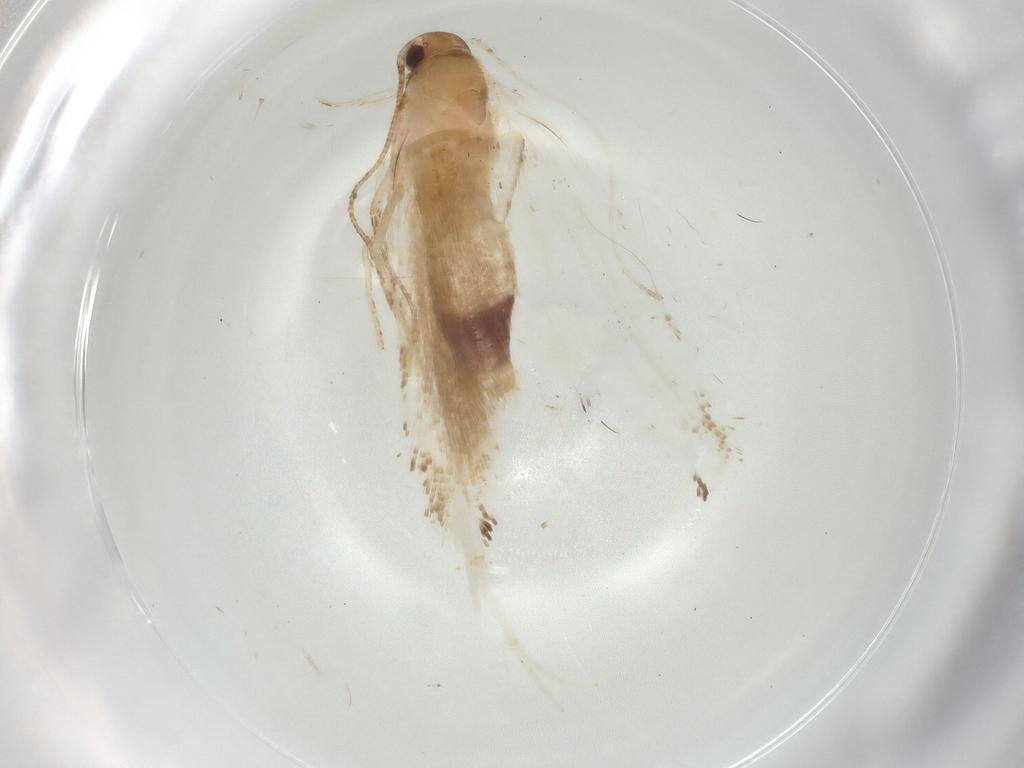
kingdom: Animalia
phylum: Arthropoda
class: Insecta
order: Lepidoptera
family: Gelechiidae
